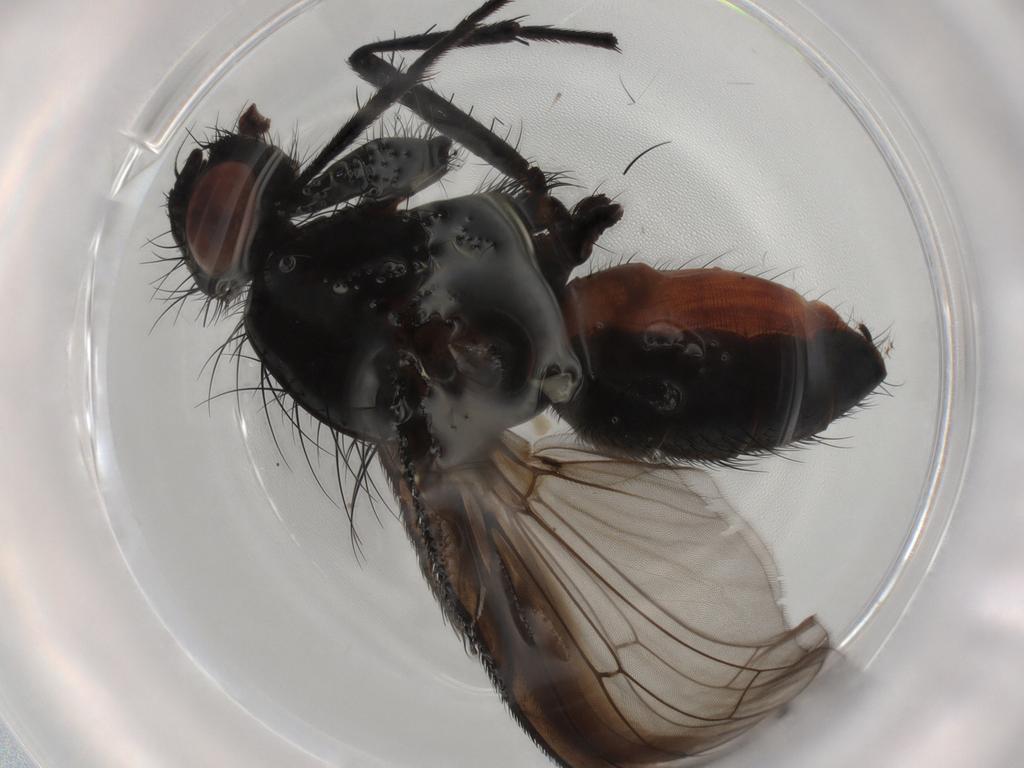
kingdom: Animalia
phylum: Arthropoda
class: Insecta
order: Diptera
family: Anthomyiidae
